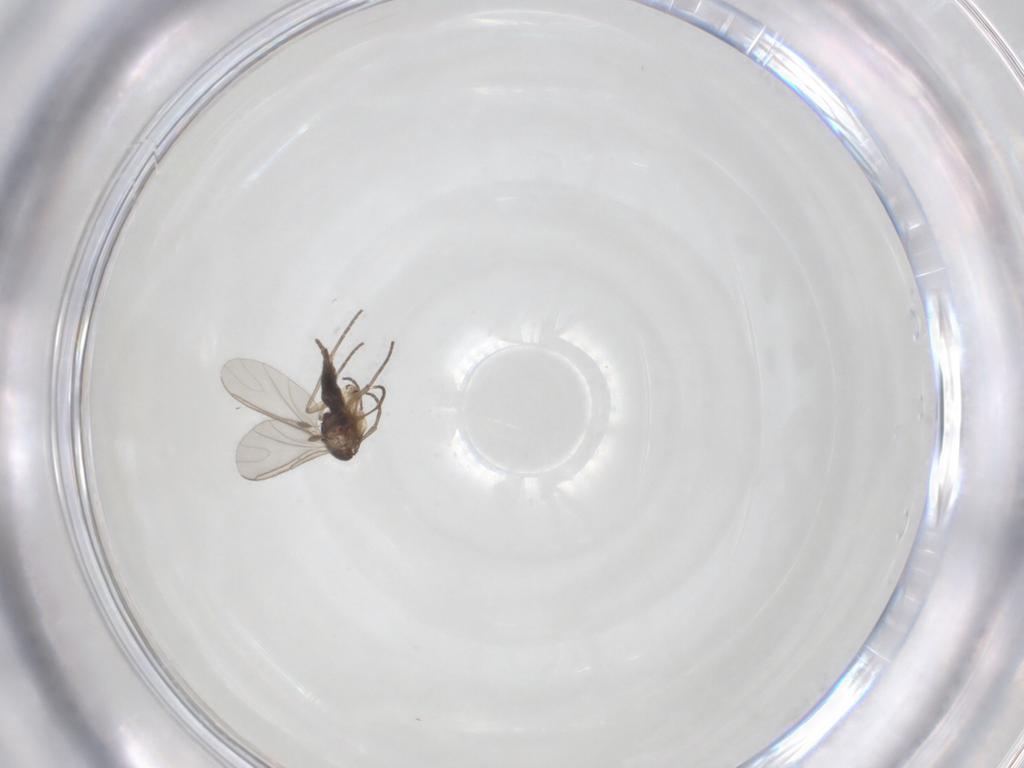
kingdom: Animalia
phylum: Arthropoda
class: Insecta
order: Diptera
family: Sciaridae
